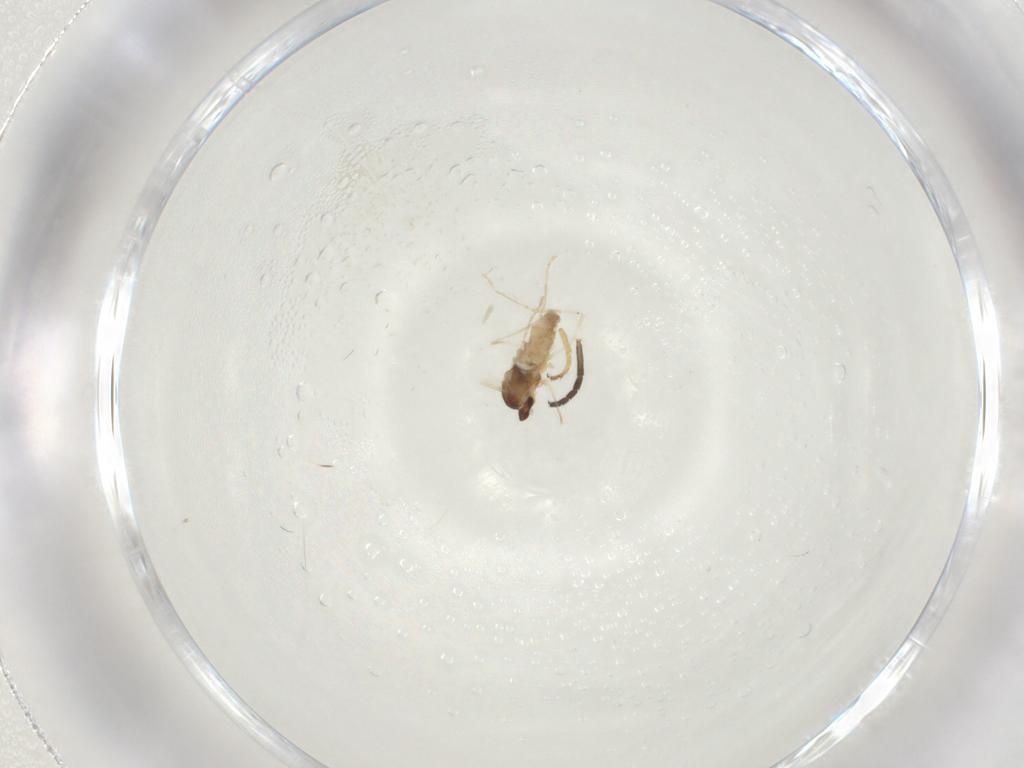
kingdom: Animalia
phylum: Arthropoda
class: Insecta
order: Diptera
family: Cecidomyiidae
